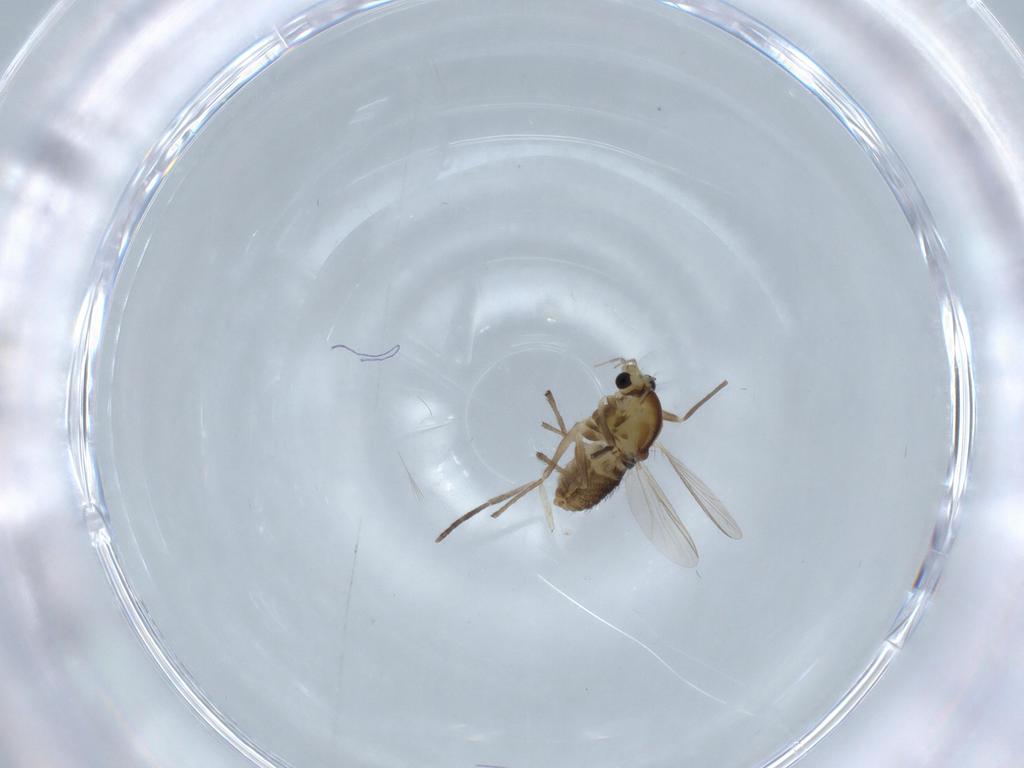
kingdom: Animalia
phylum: Arthropoda
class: Insecta
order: Diptera
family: Chironomidae
